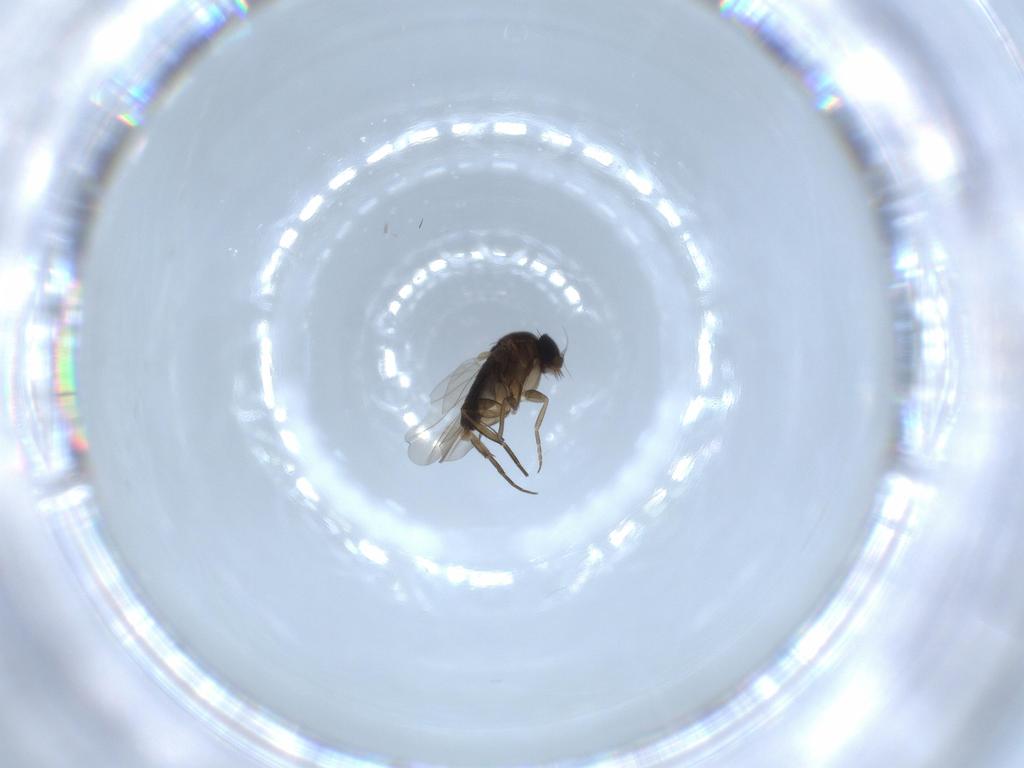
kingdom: Animalia
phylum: Arthropoda
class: Insecta
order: Diptera
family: Phoridae
